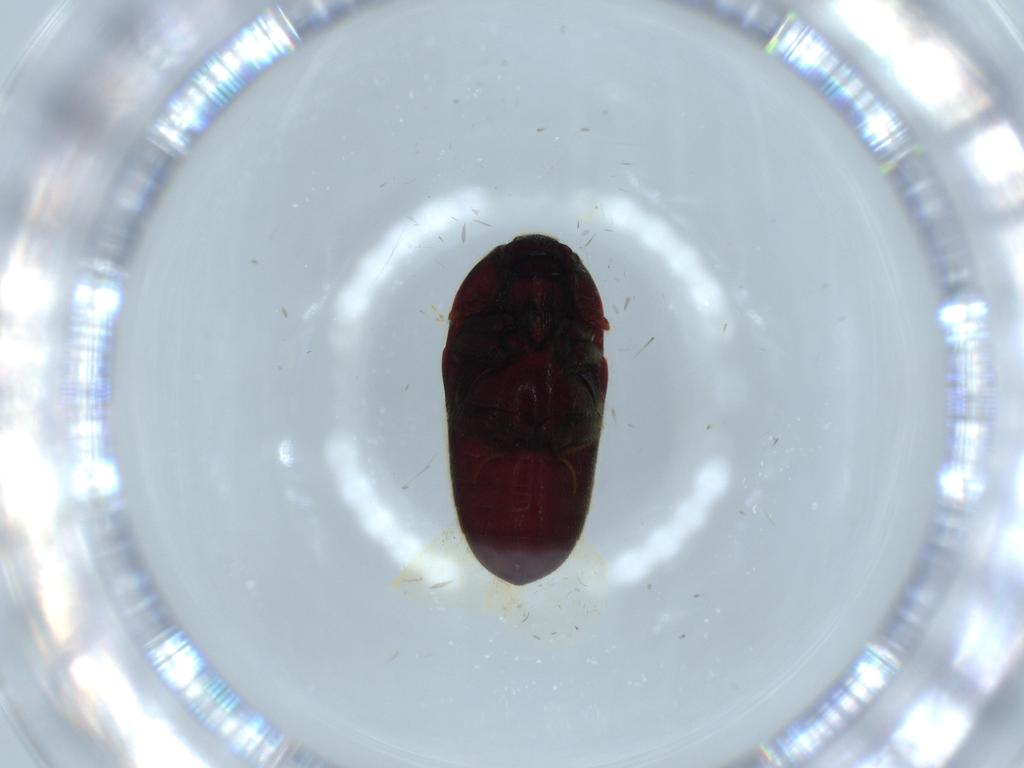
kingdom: Animalia
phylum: Arthropoda
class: Insecta
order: Coleoptera
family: Throscidae
